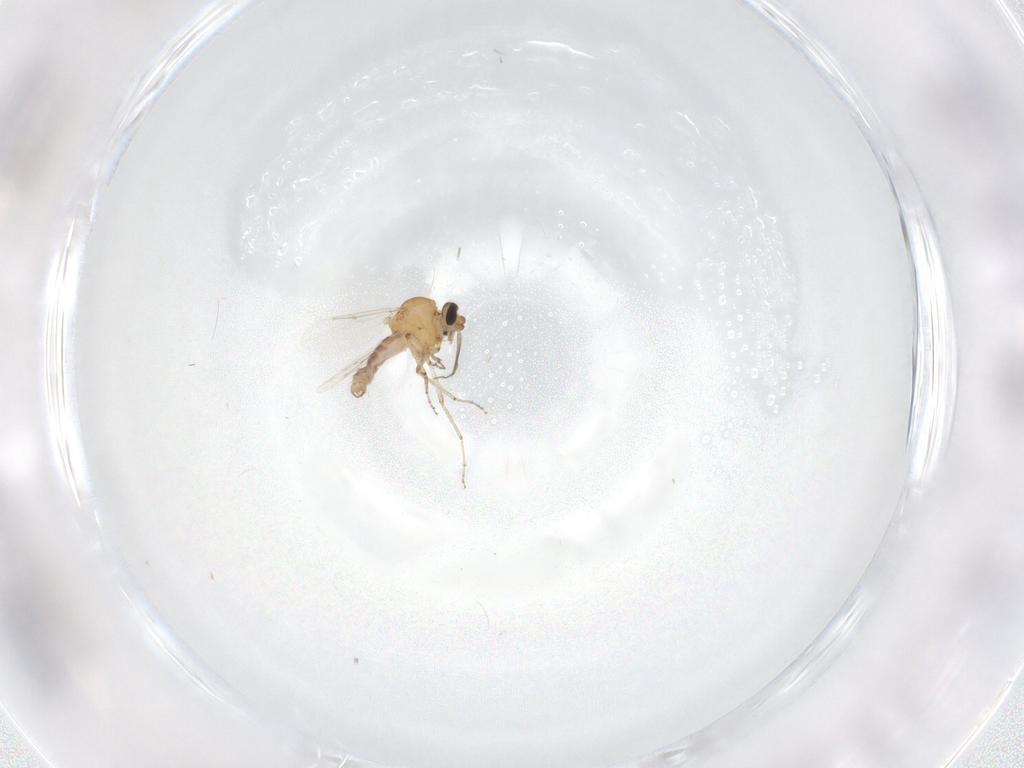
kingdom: Animalia
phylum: Arthropoda
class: Insecta
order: Diptera
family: Ceratopogonidae
